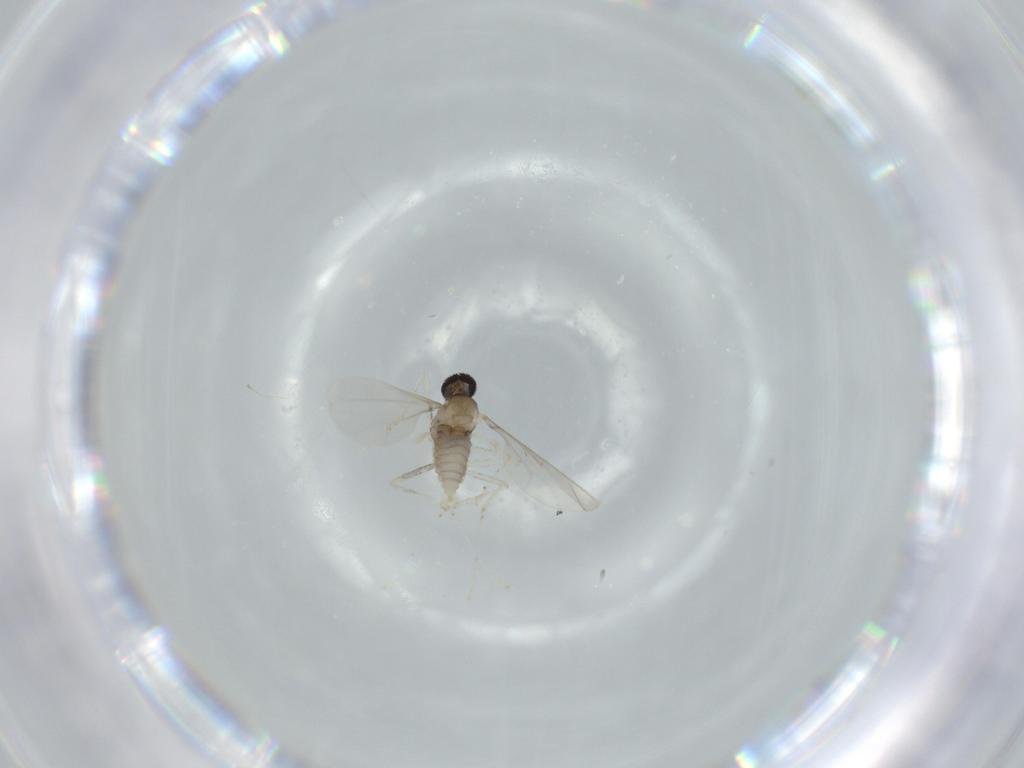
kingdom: Animalia
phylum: Arthropoda
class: Insecta
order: Diptera
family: Cecidomyiidae
